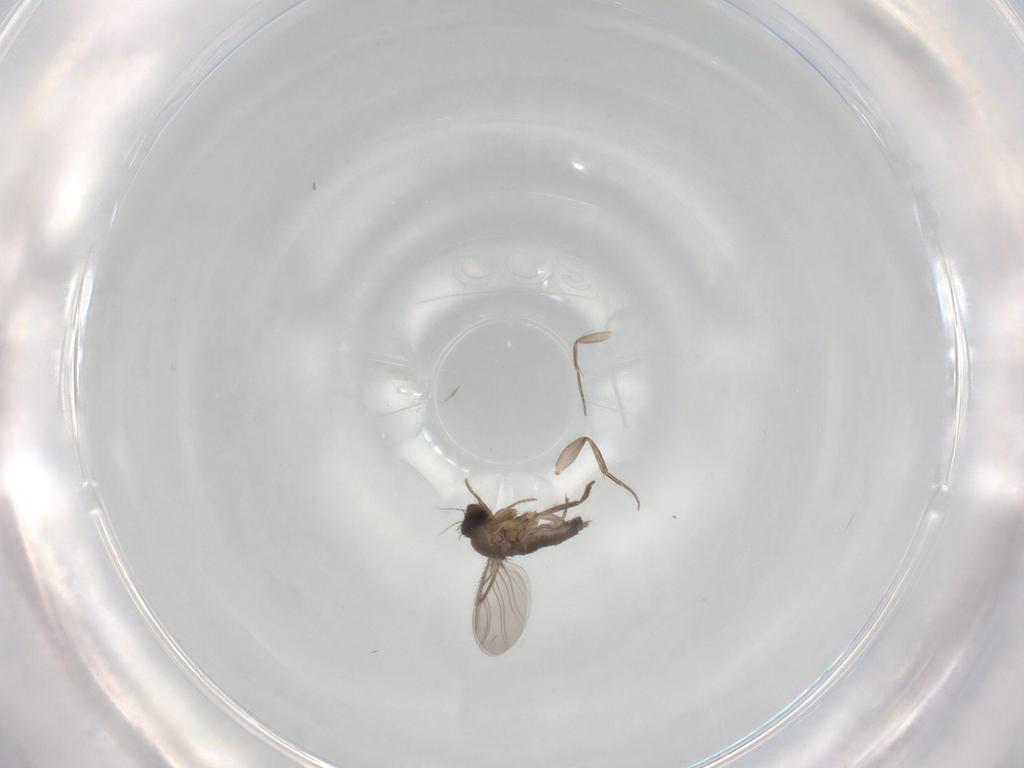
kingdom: Animalia
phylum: Arthropoda
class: Insecta
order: Diptera
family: Phoridae
